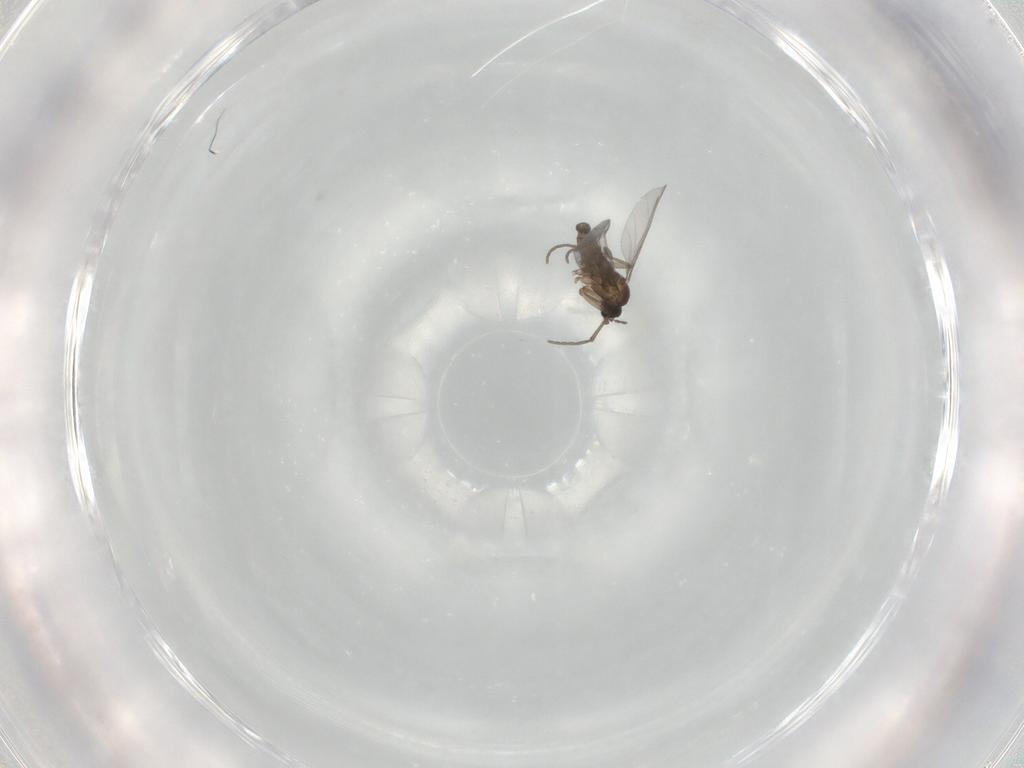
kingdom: Animalia
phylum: Arthropoda
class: Insecta
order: Diptera
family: Sciaridae
